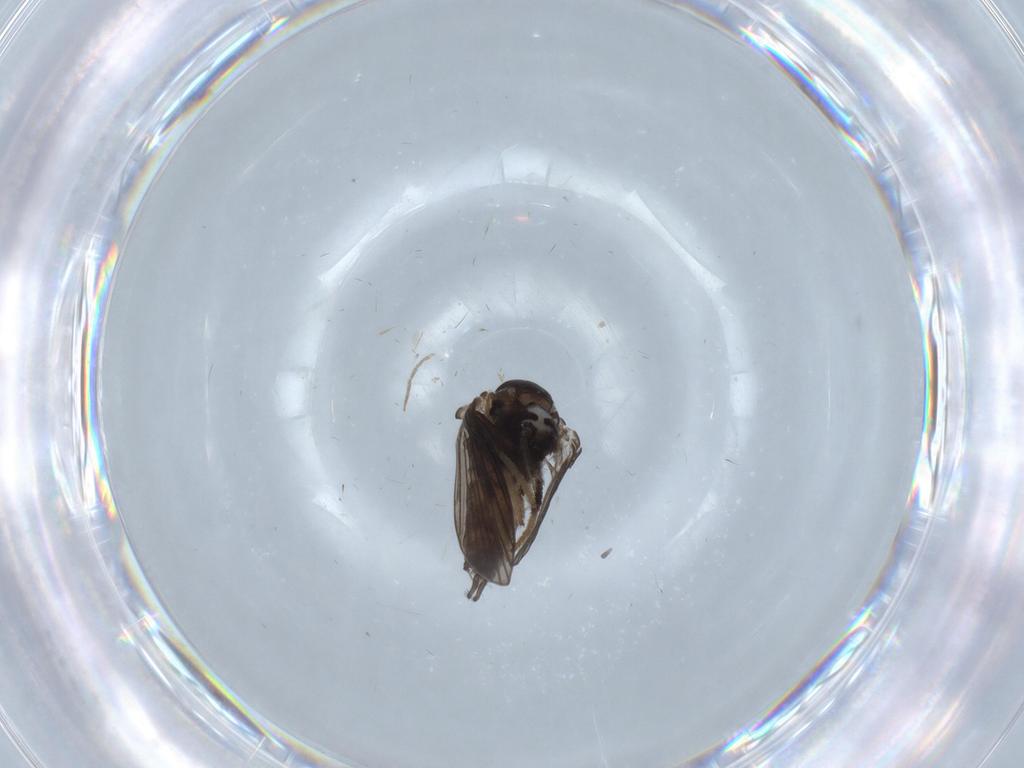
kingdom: Animalia
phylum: Arthropoda
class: Insecta
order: Diptera
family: Psychodidae
